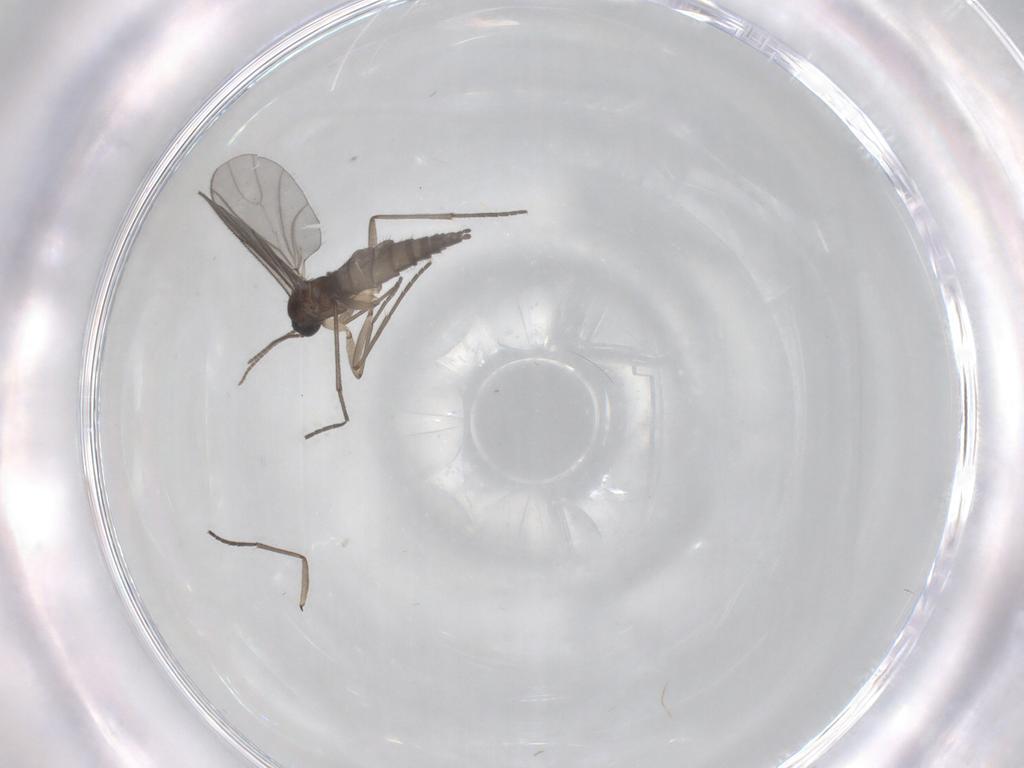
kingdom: Animalia
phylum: Arthropoda
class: Insecta
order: Diptera
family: Sciaridae
